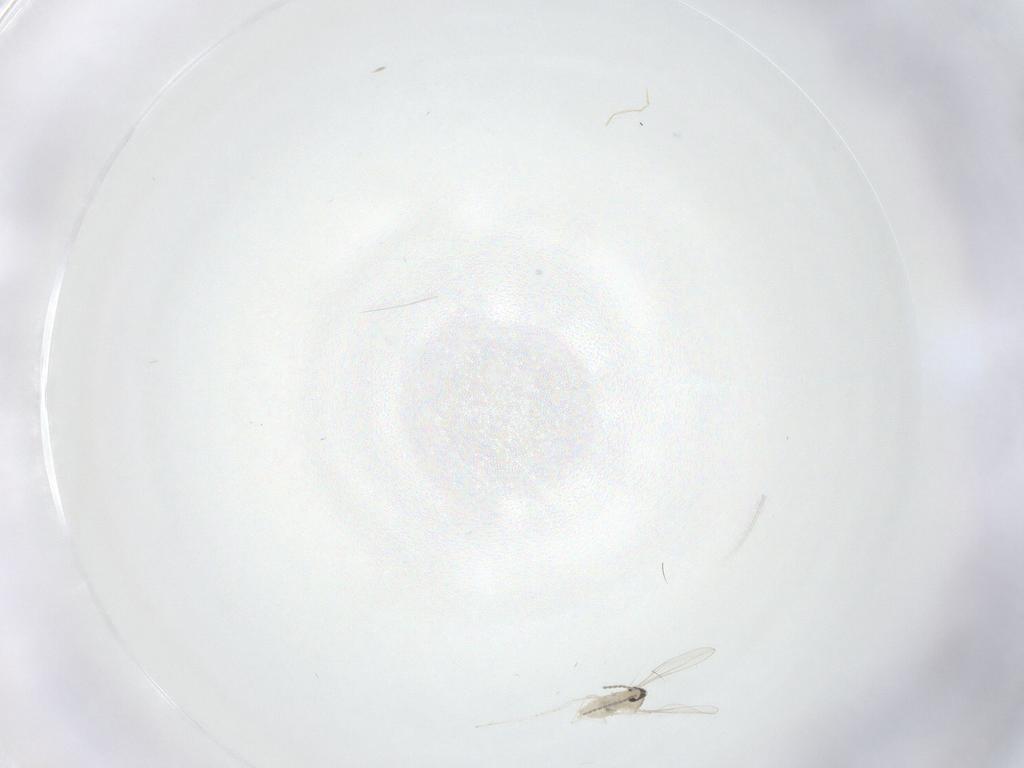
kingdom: Animalia
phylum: Arthropoda
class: Insecta
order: Diptera
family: Cecidomyiidae
